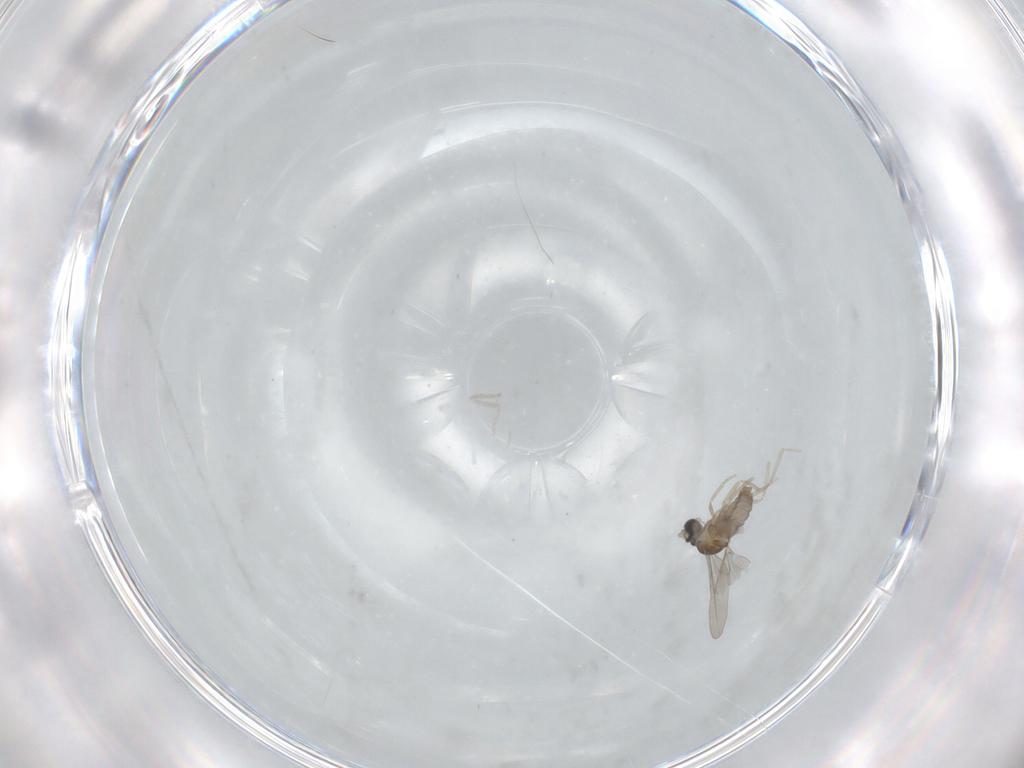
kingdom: Animalia
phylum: Arthropoda
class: Insecta
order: Diptera
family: Cecidomyiidae
